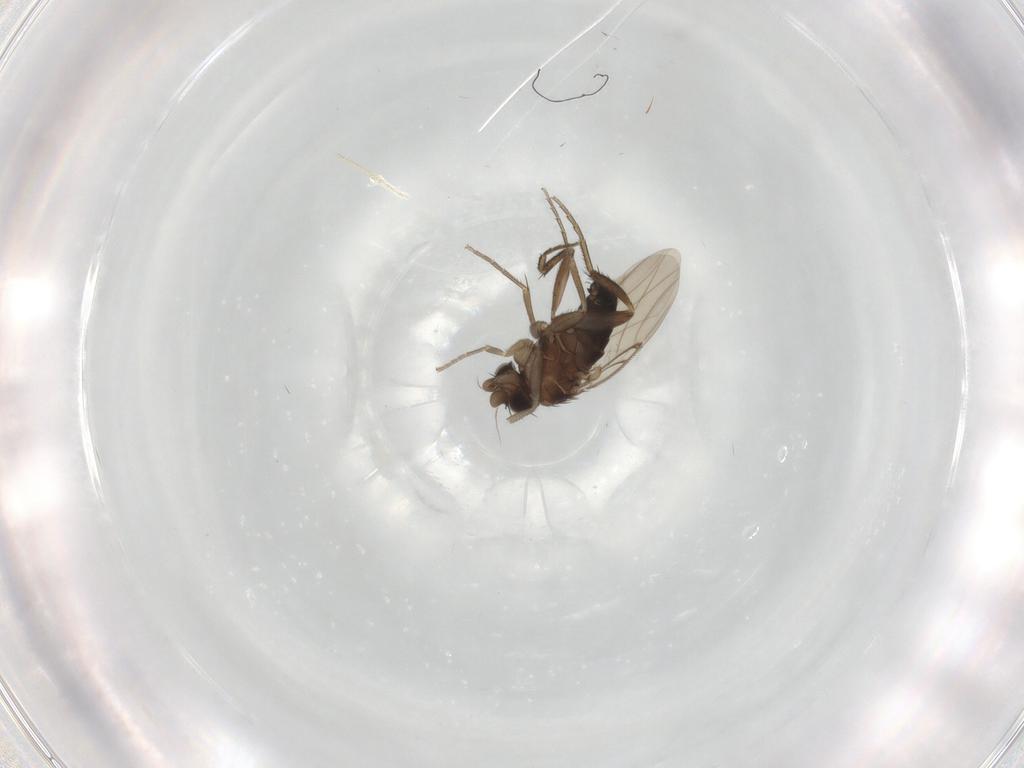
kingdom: Animalia
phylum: Arthropoda
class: Insecta
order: Diptera
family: Phoridae
